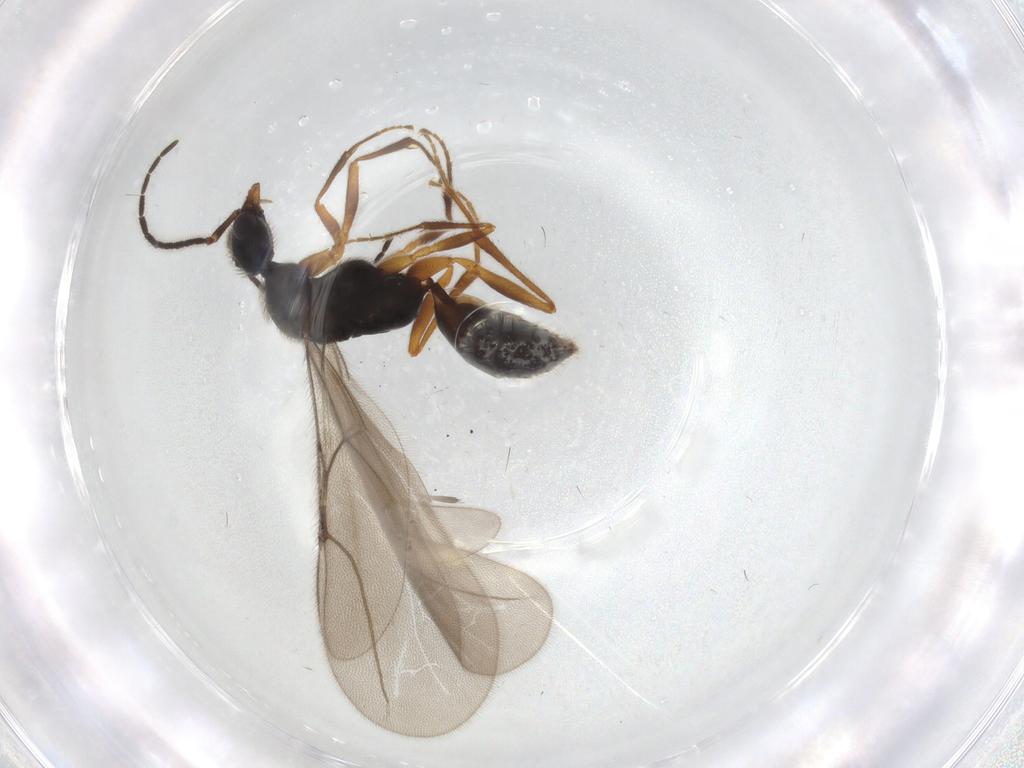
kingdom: Animalia
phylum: Arthropoda
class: Insecta
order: Hymenoptera
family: Bethylidae
